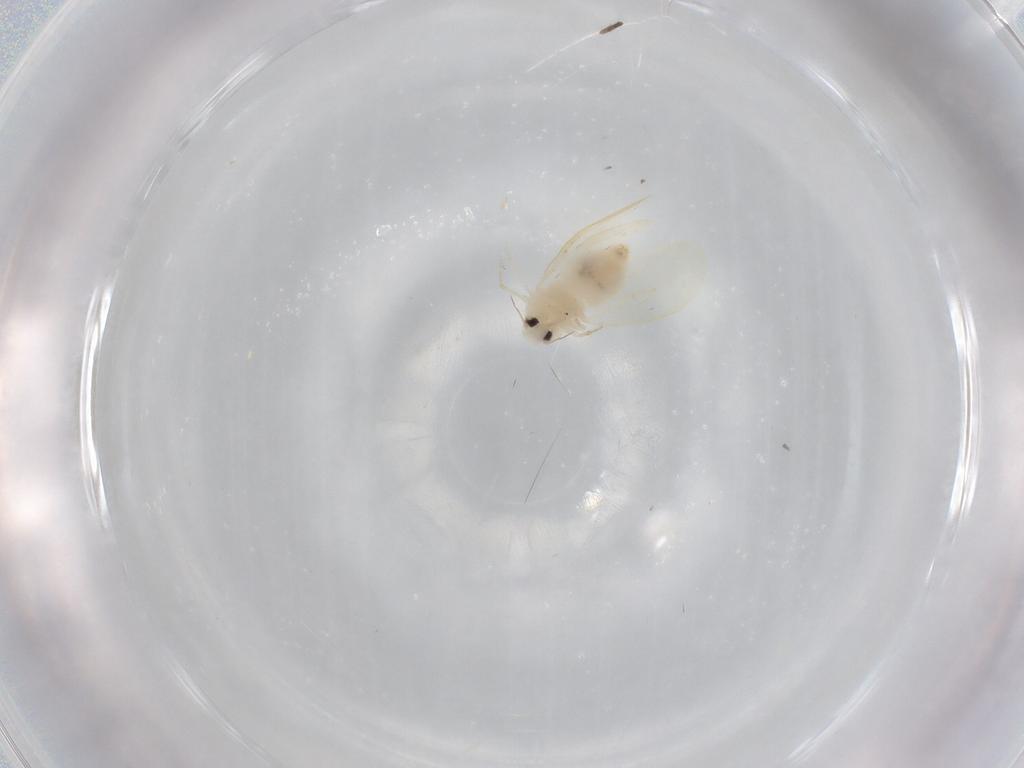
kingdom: Animalia
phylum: Arthropoda
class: Insecta
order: Hemiptera
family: Aleyrodidae
